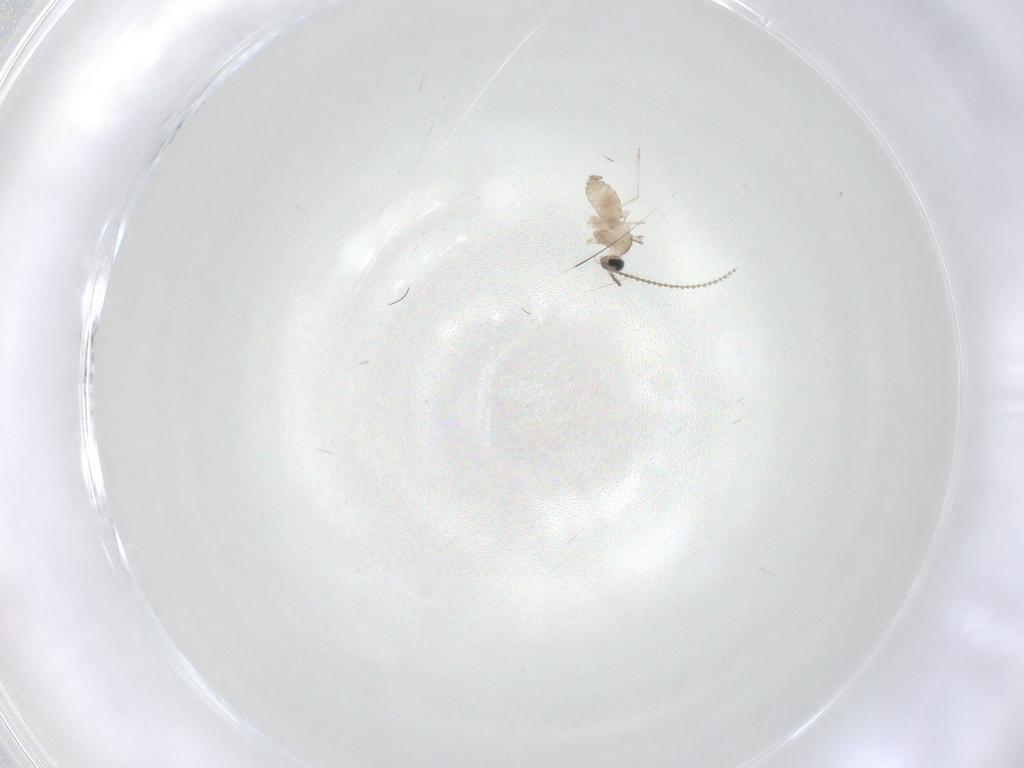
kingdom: Animalia
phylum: Arthropoda
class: Insecta
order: Diptera
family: Cecidomyiidae
